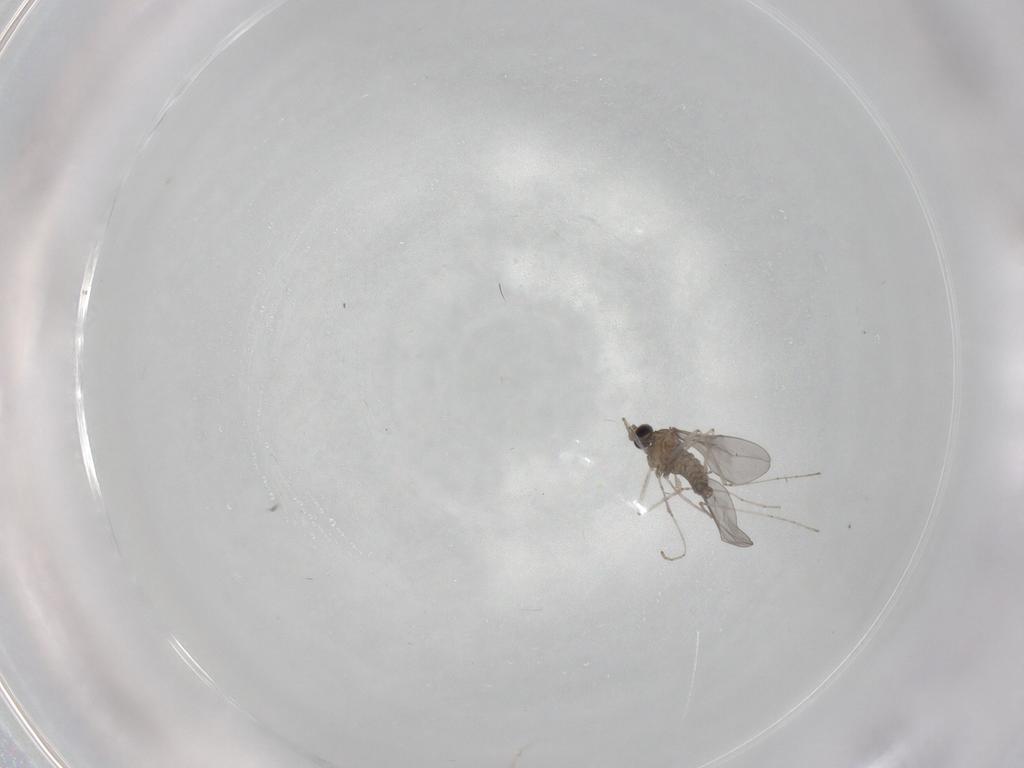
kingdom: Animalia
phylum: Arthropoda
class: Insecta
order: Diptera
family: Cecidomyiidae
